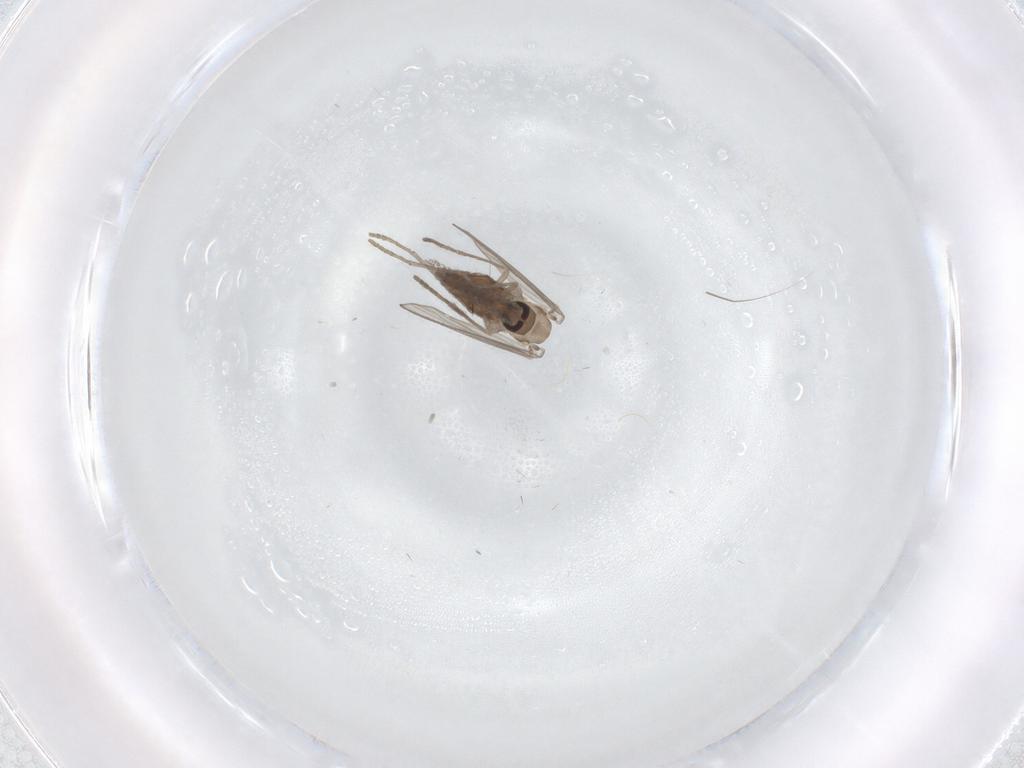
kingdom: Animalia
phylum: Arthropoda
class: Insecta
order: Diptera
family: Psychodidae
